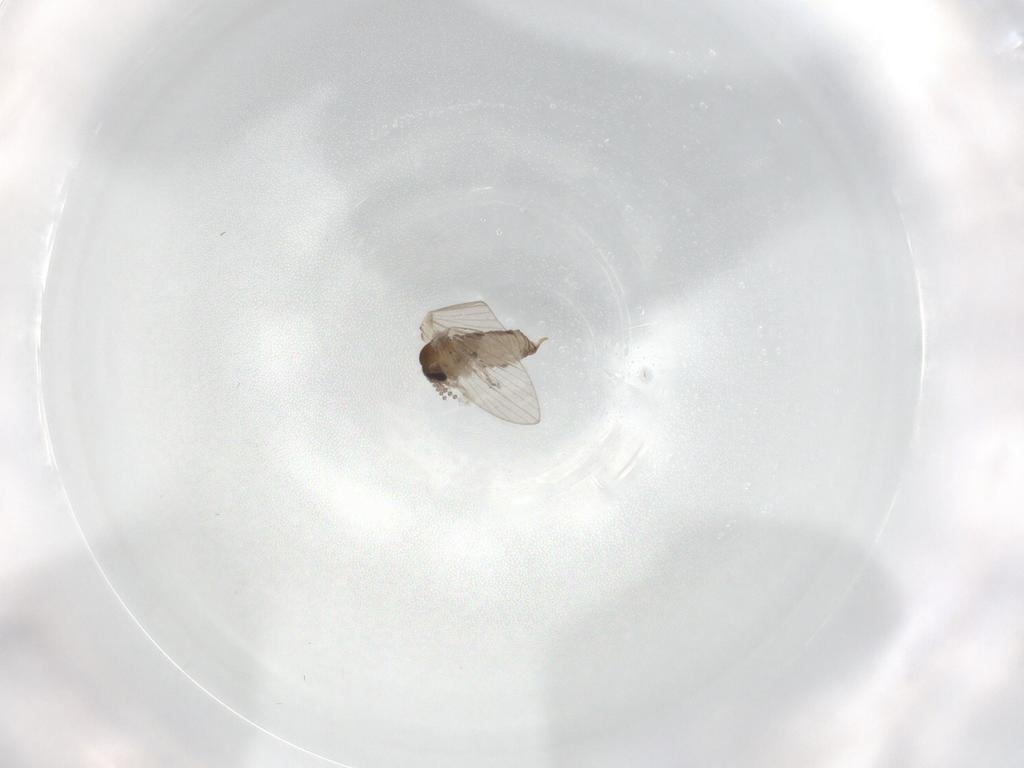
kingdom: Animalia
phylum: Arthropoda
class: Insecta
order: Diptera
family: Psychodidae
